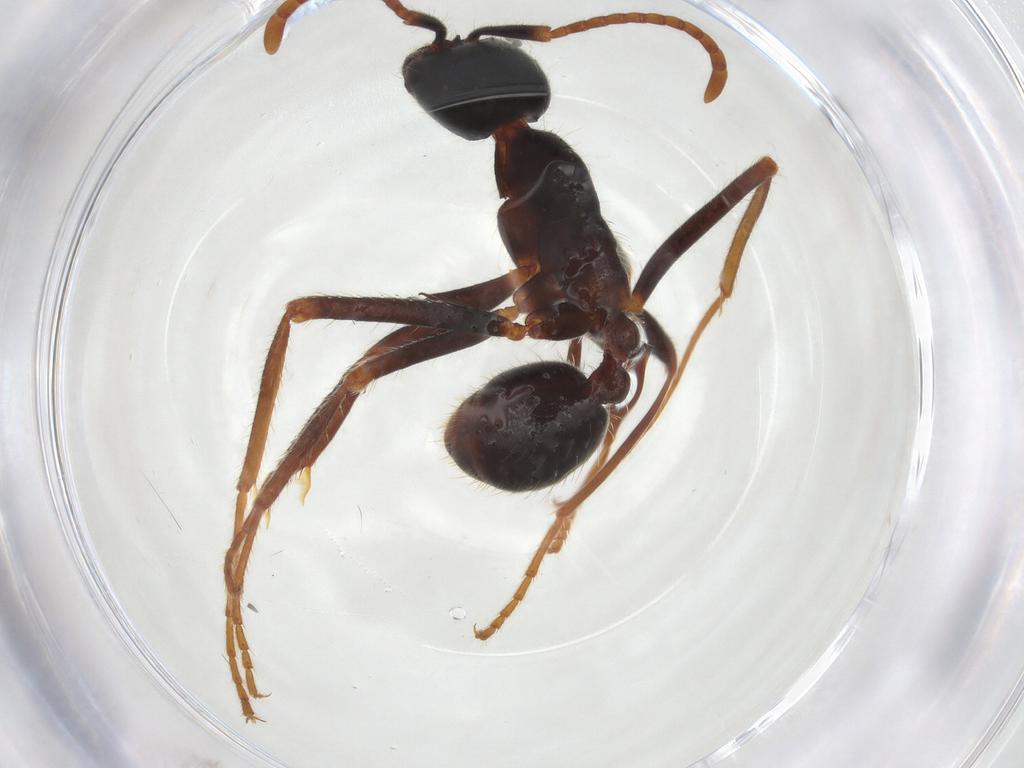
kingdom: Animalia
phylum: Arthropoda
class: Insecta
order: Hymenoptera
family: Formicidae
